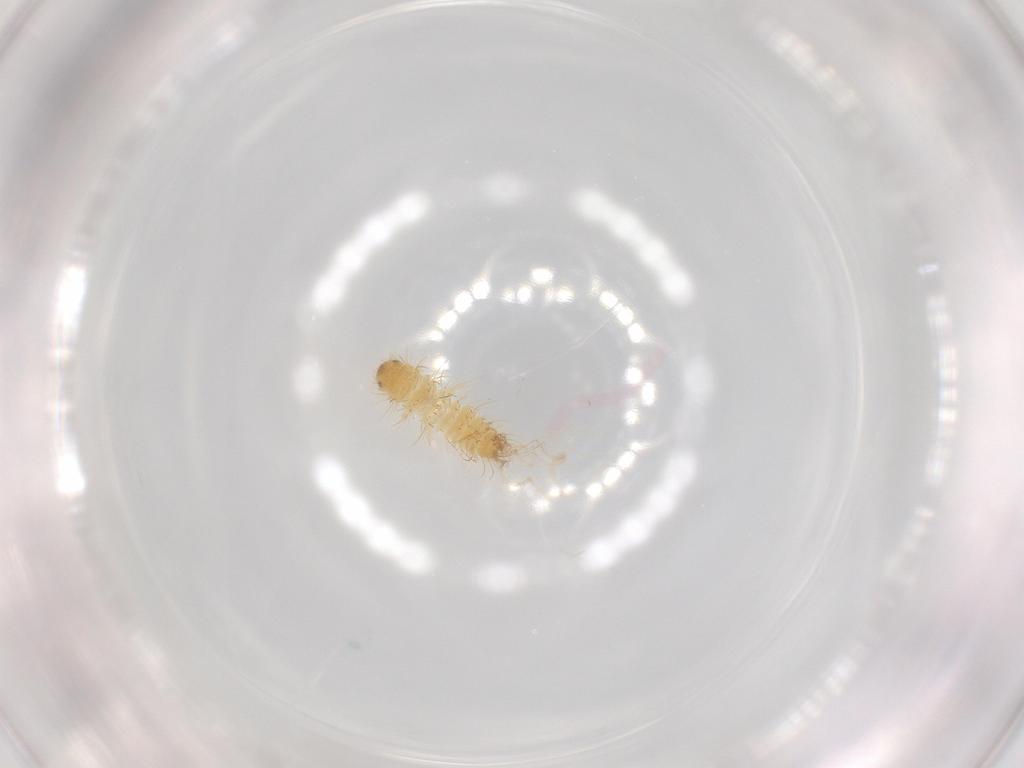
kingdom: Animalia
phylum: Arthropoda
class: Insecta
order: Coleoptera
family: Dermestidae
